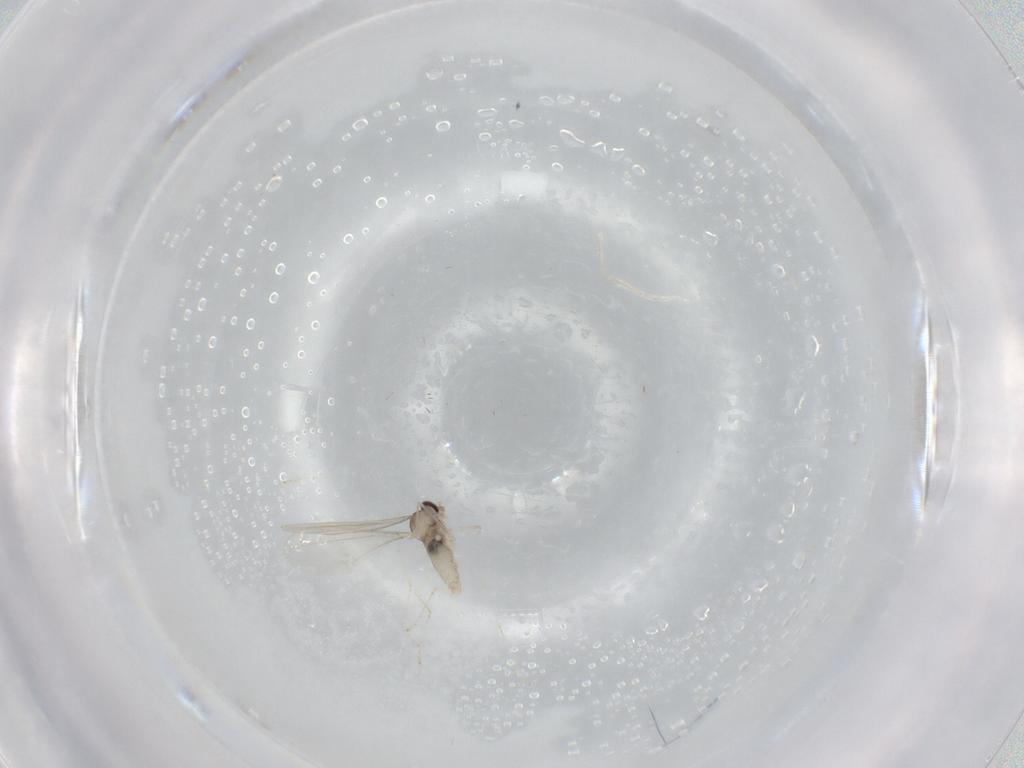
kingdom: Animalia
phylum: Arthropoda
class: Insecta
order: Diptera
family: Cecidomyiidae
